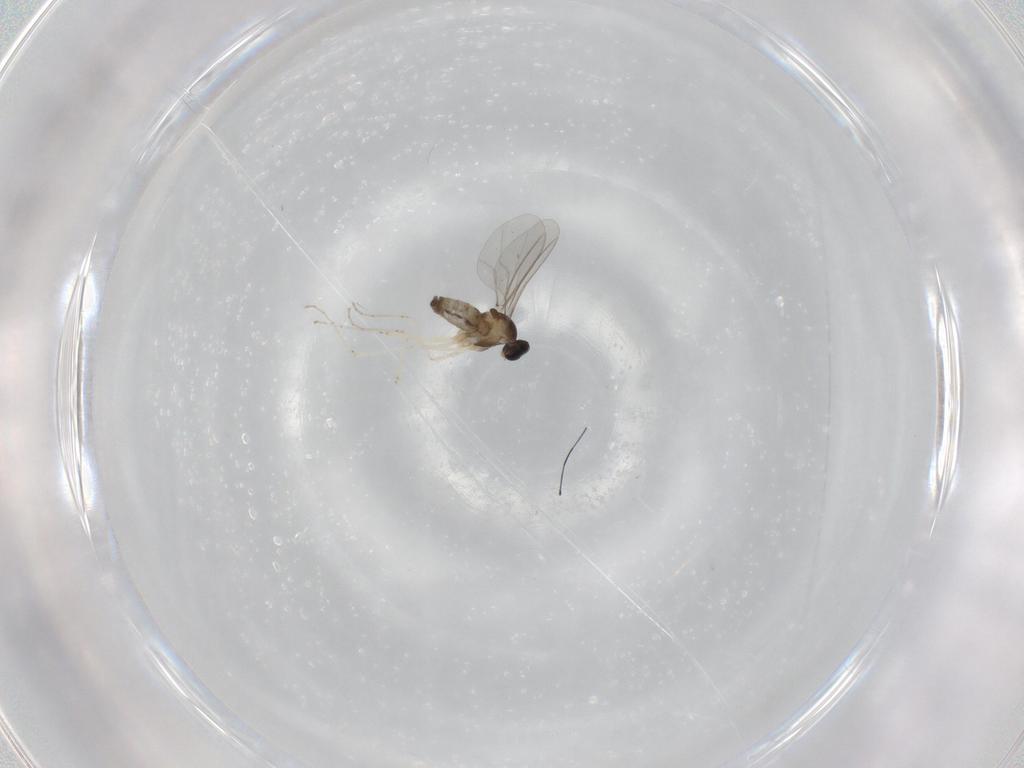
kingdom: Animalia
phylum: Arthropoda
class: Insecta
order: Diptera
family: Cecidomyiidae
